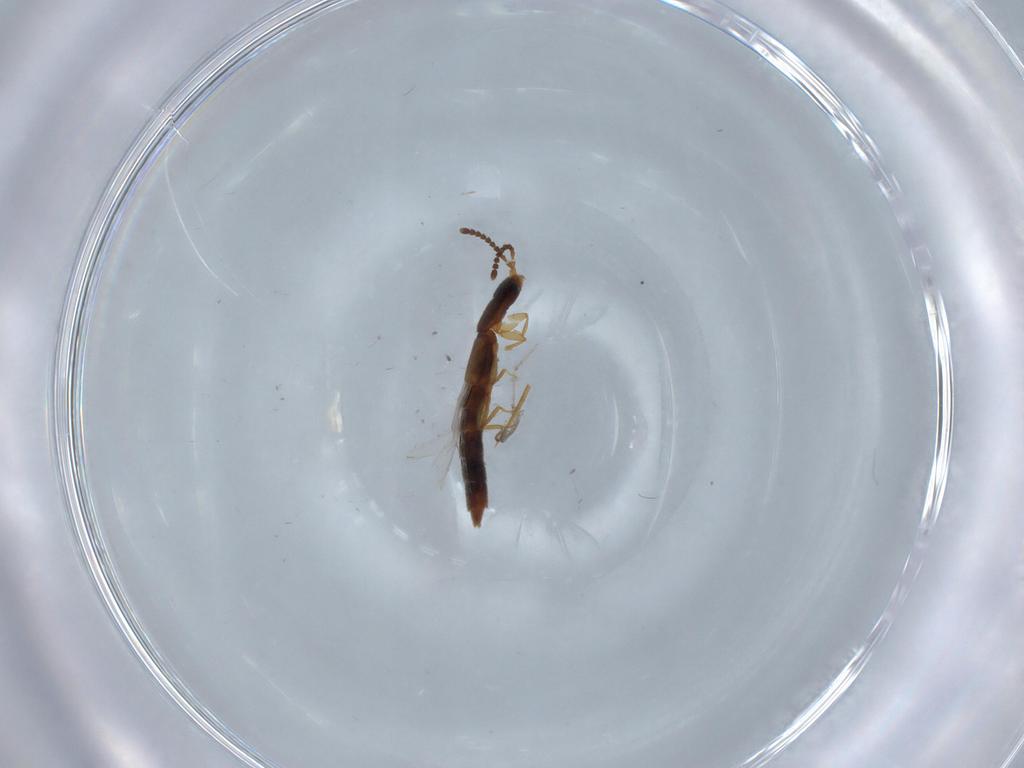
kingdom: Animalia
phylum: Arthropoda
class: Insecta
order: Coleoptera
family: Staphylinidae
